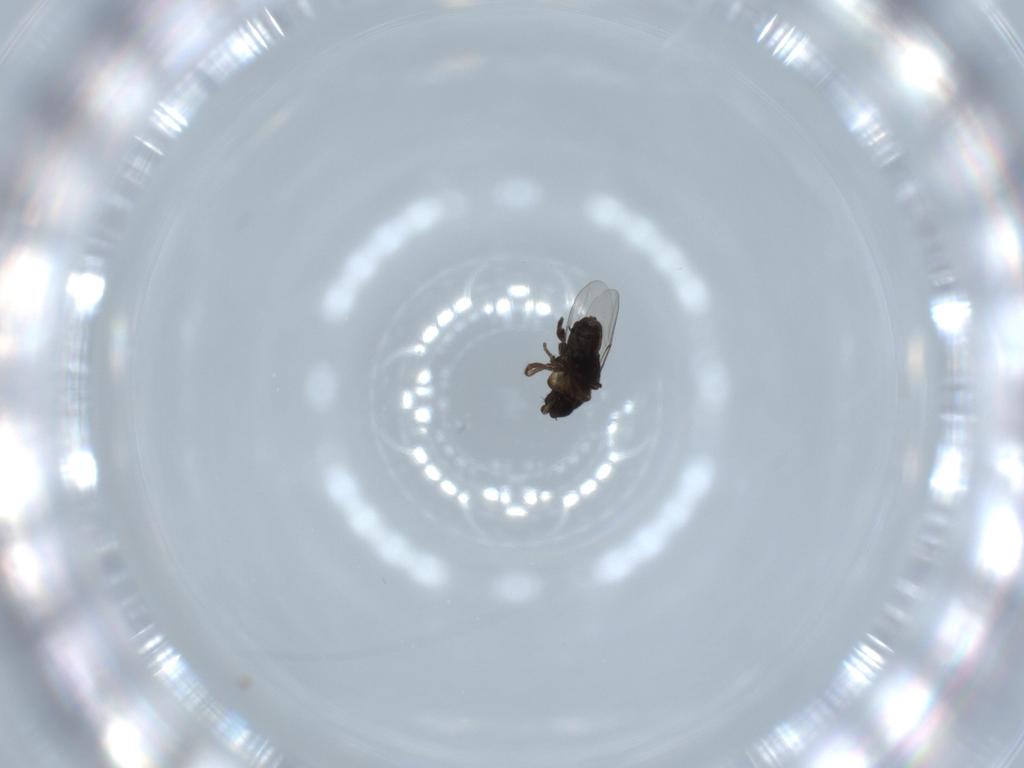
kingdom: Animalia
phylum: Arthropoda
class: Insecta
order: Diptera
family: Phoridae
